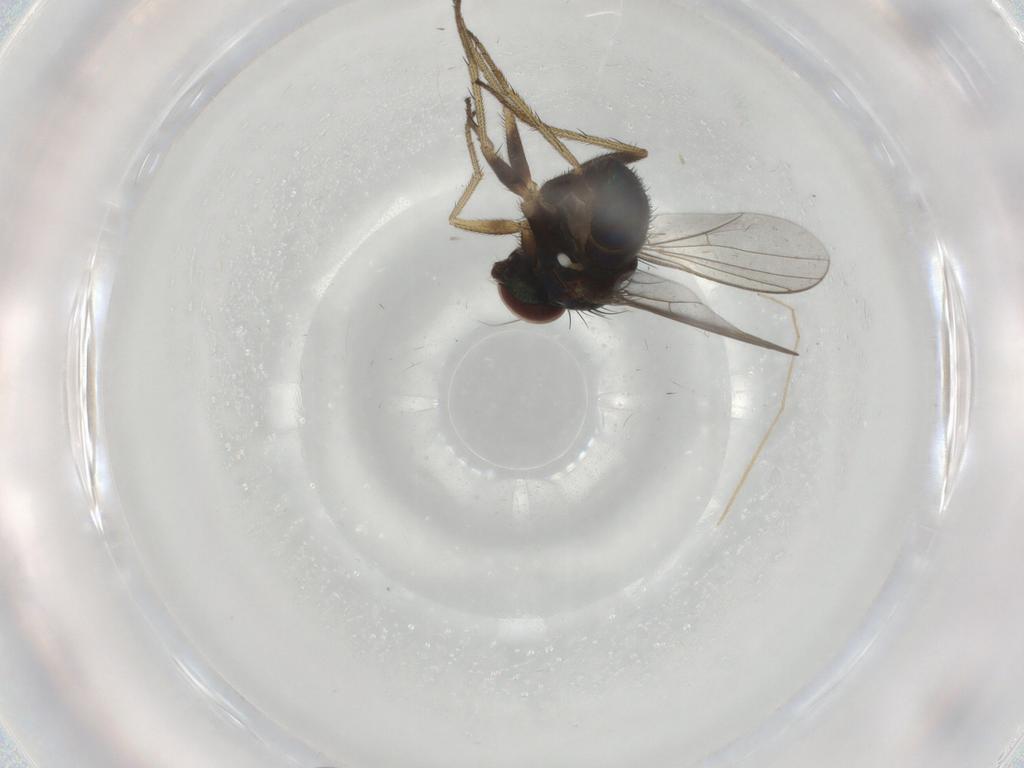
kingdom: Animalia
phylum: Arthropoda
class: Insecta
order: Diptera
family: Chironomidae
